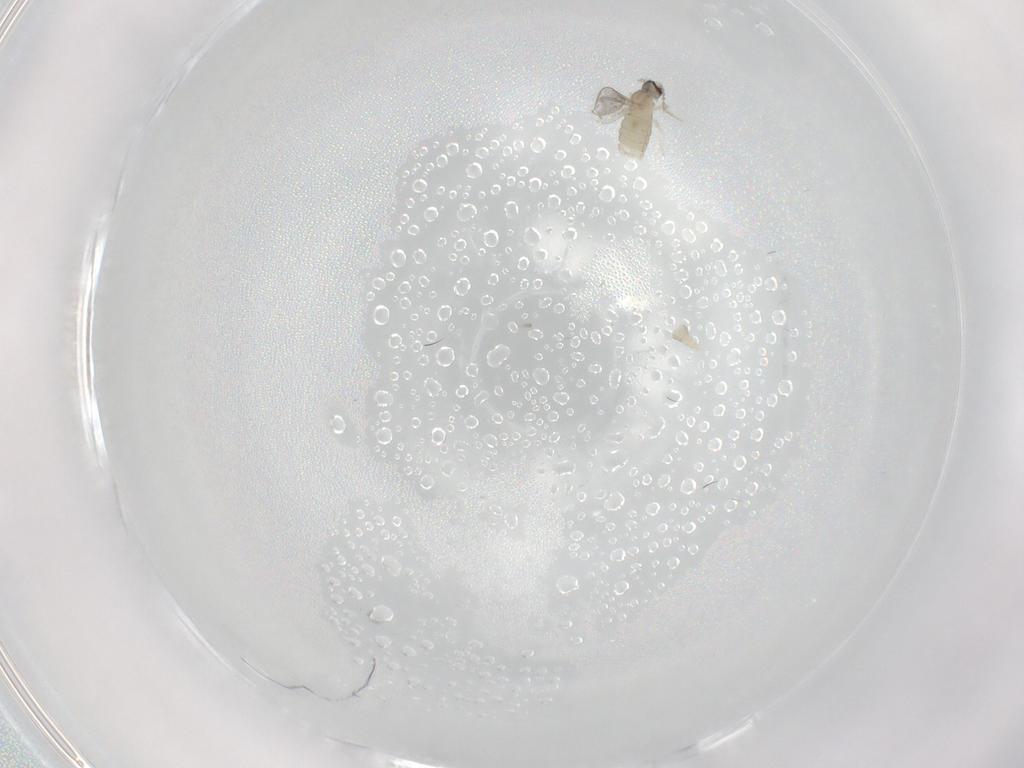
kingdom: Animalia
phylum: Arthropoda
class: Insecta
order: Diptera
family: Cecidomyiidae
